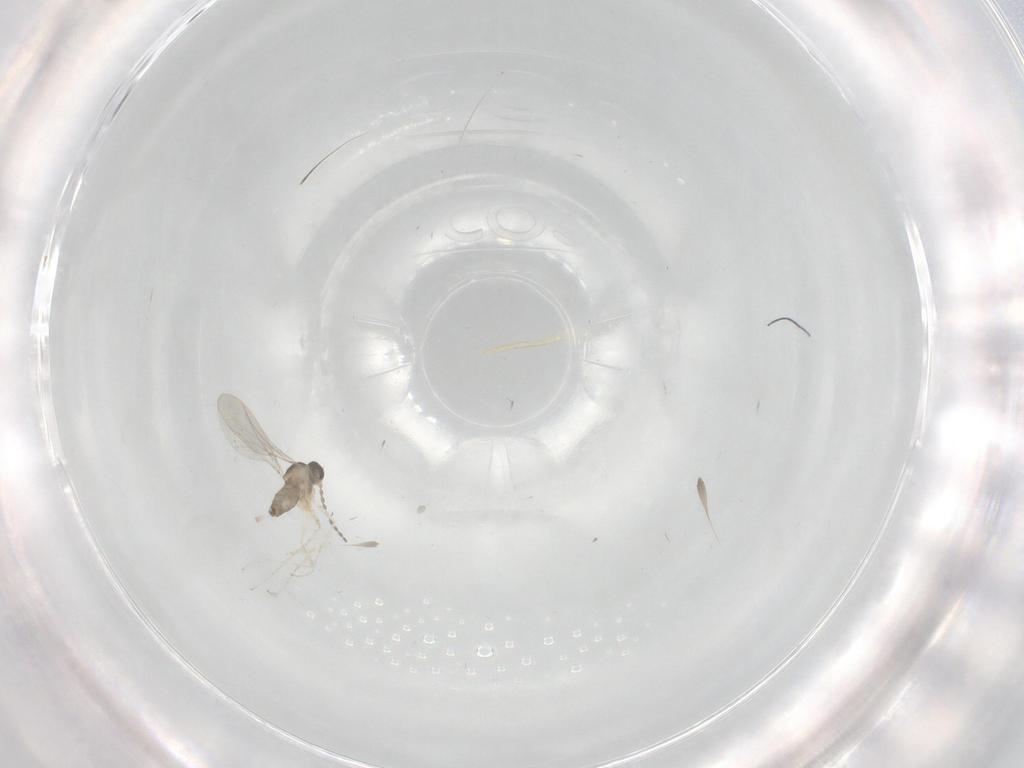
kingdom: Animalia
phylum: Arthropoda
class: Insecta
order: Diptera
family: Cecidomyiidae
